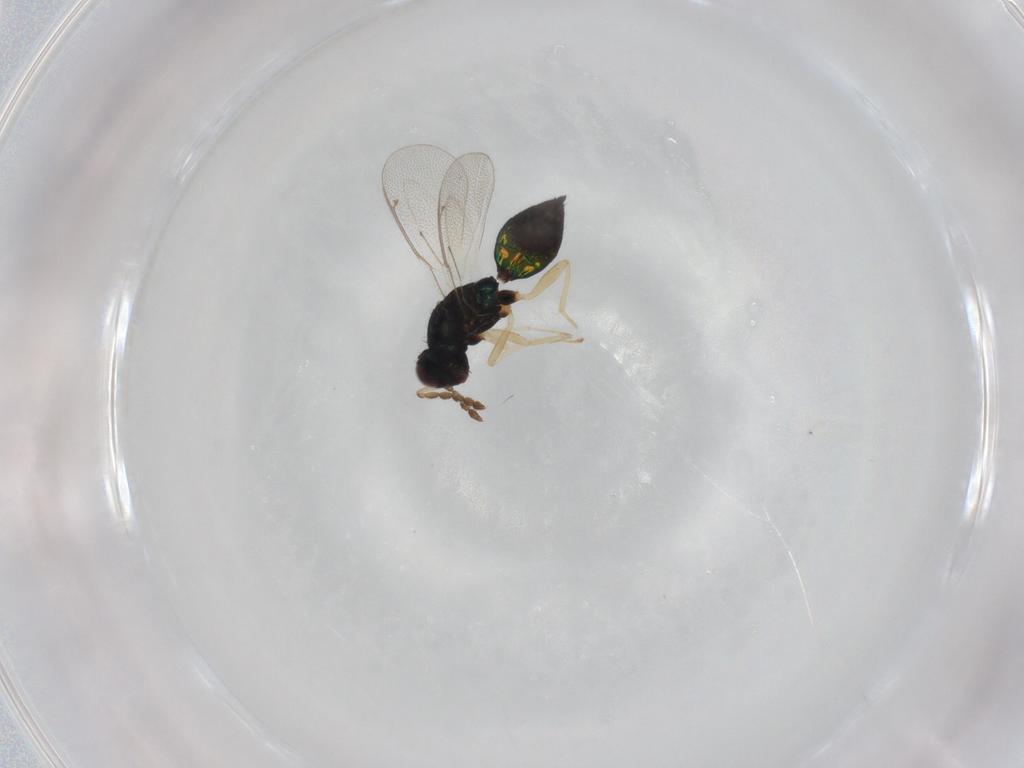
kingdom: Animalia
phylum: Arthropoda
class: Insecta
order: Hymenoptera
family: Eulophidae
